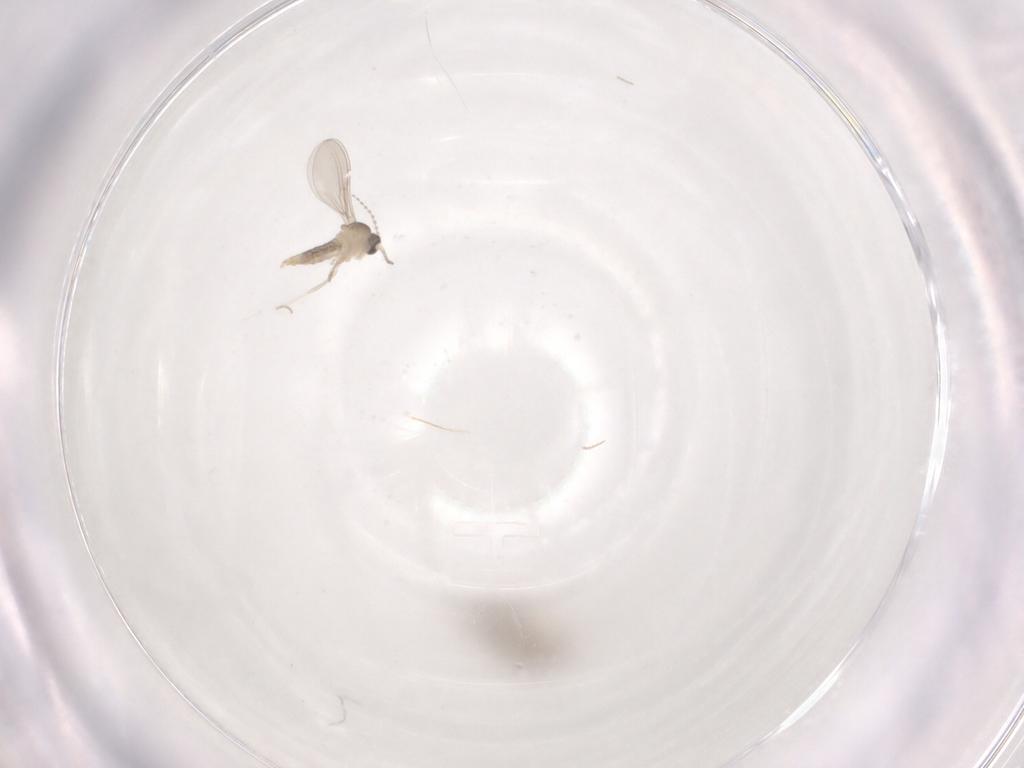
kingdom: Animalia
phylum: Arthropoda
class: Insecta
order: Diptera
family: Cecidomyiidae
